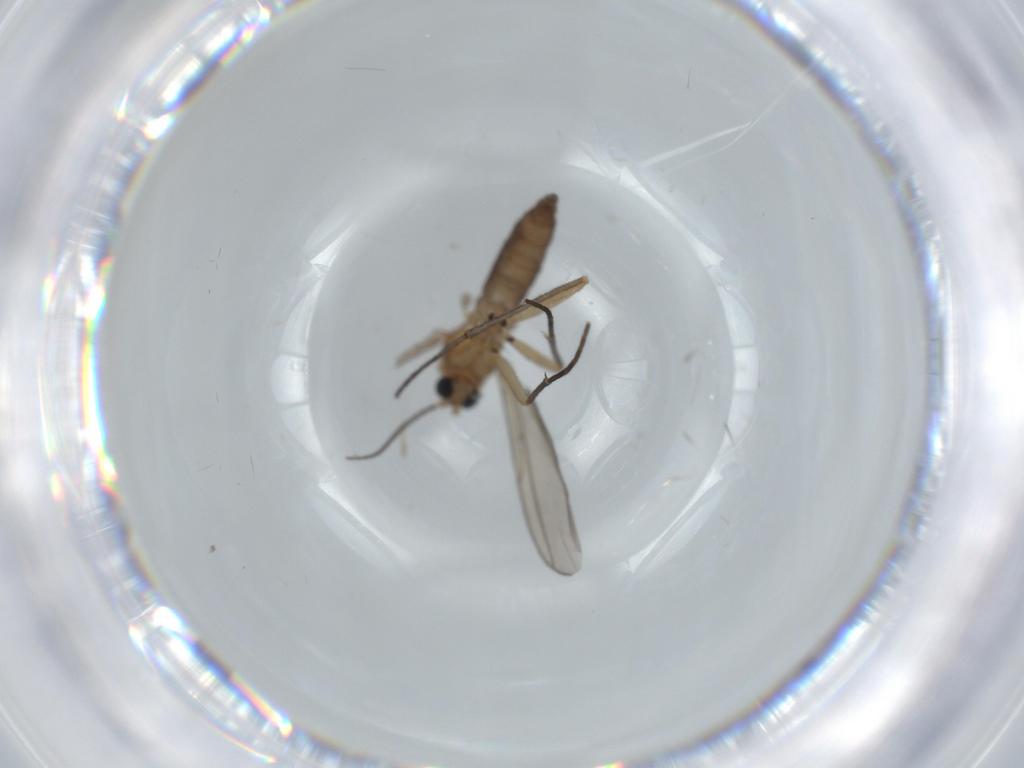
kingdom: Animalia
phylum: Arthropoda
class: Insecta
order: Diptera
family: Sciaridae
